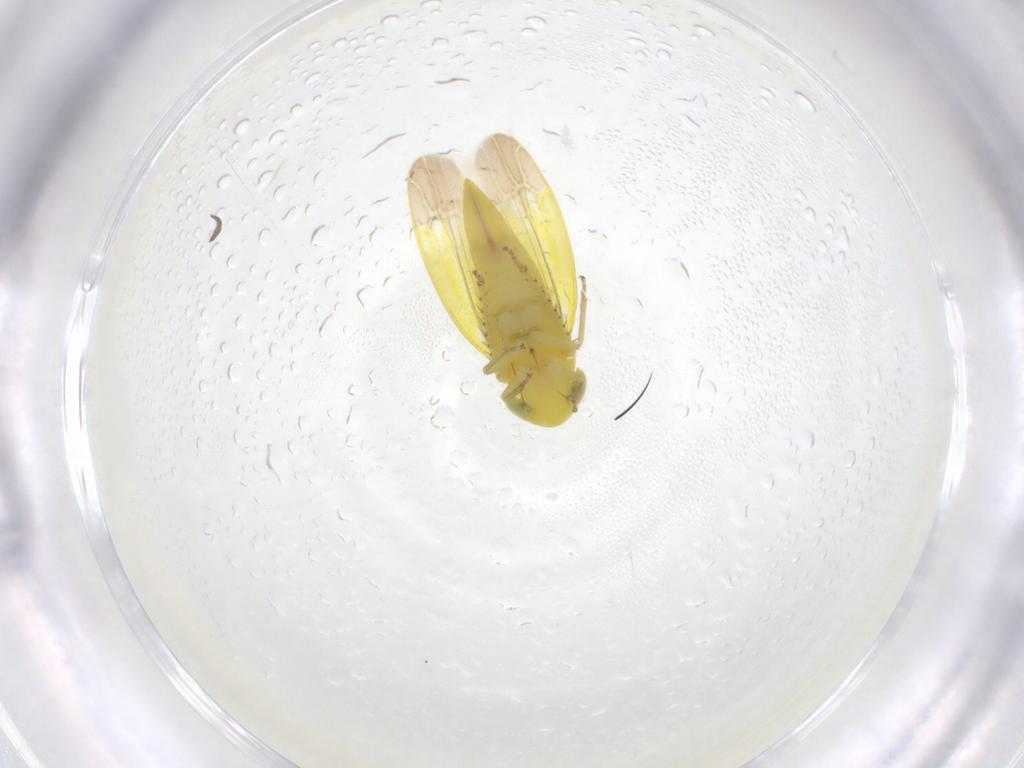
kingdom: Animalia
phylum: Arthropoda
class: Insecta
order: Hemiptera
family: Cicadellidae
